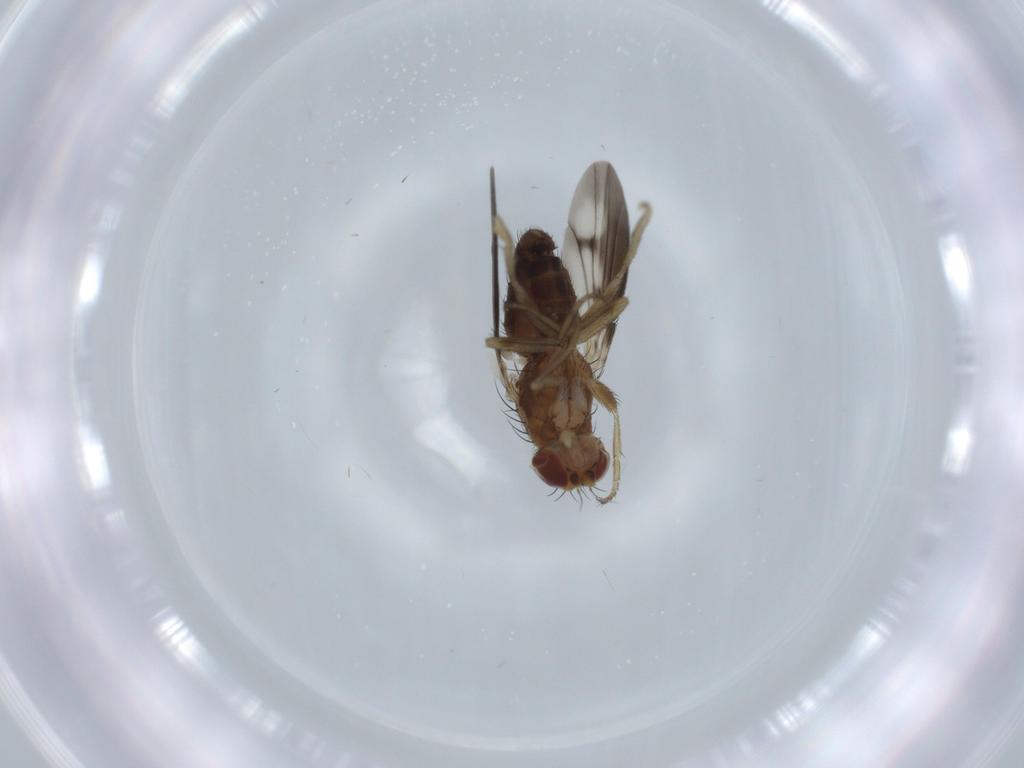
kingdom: Animalia
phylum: Arthropoda
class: Insecta
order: Diptera
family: Heleomyzidae
